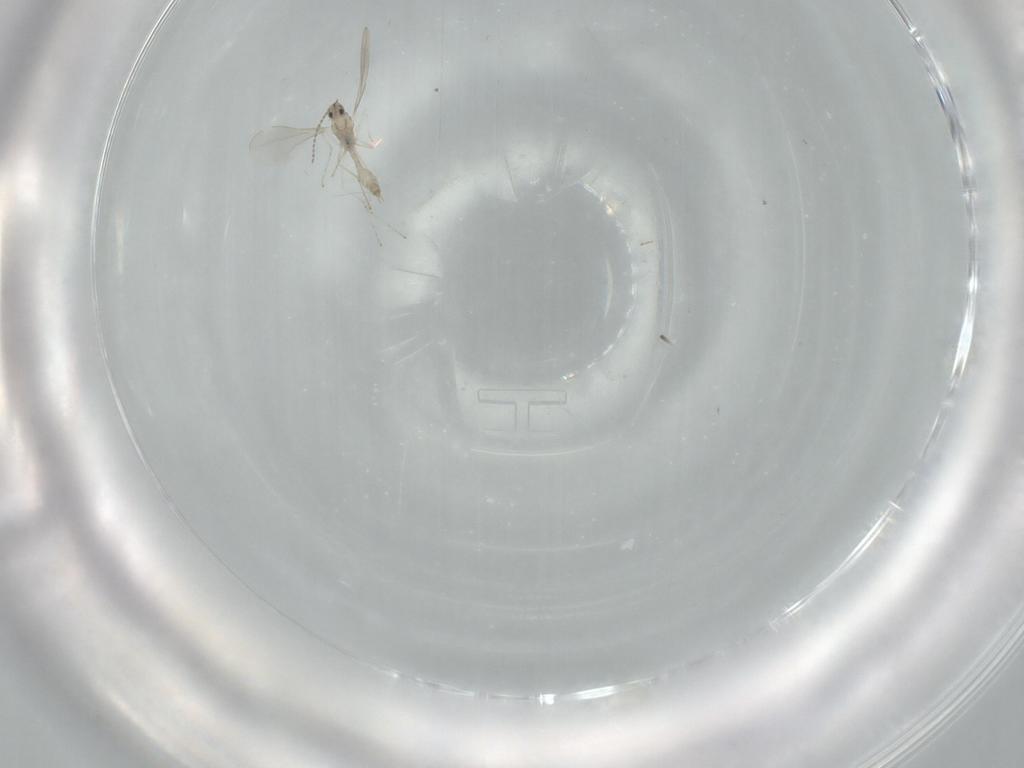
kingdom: Animalia
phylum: Arthropoda
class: Insecta
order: Diptera
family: Cecidomyiidae
